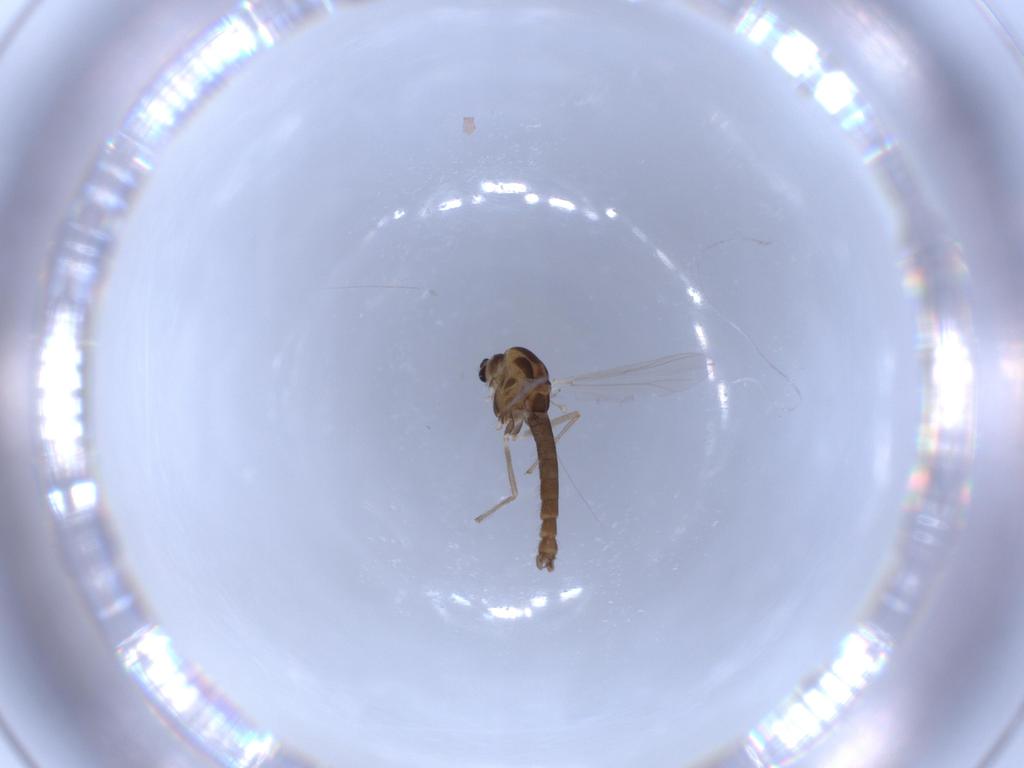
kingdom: Animalia
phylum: Arthropoda
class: Insecta
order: Diptera
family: Chironomidae
